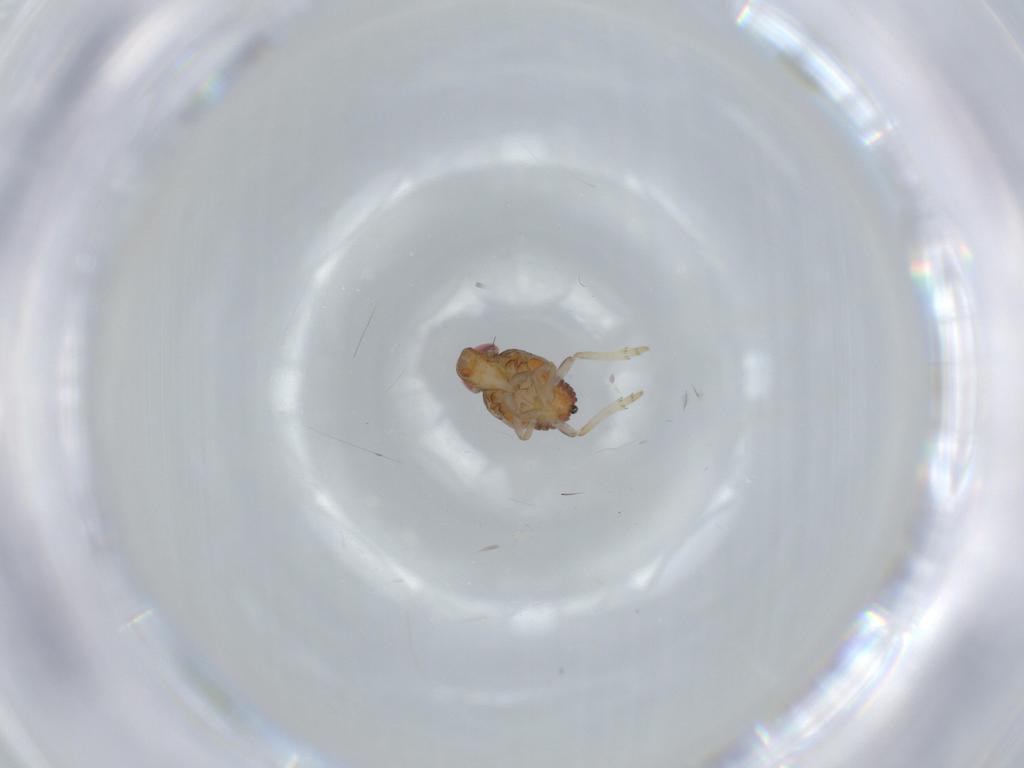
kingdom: Animalia
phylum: Arthropoda
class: Insecta
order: Hemiptera
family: Issidae
